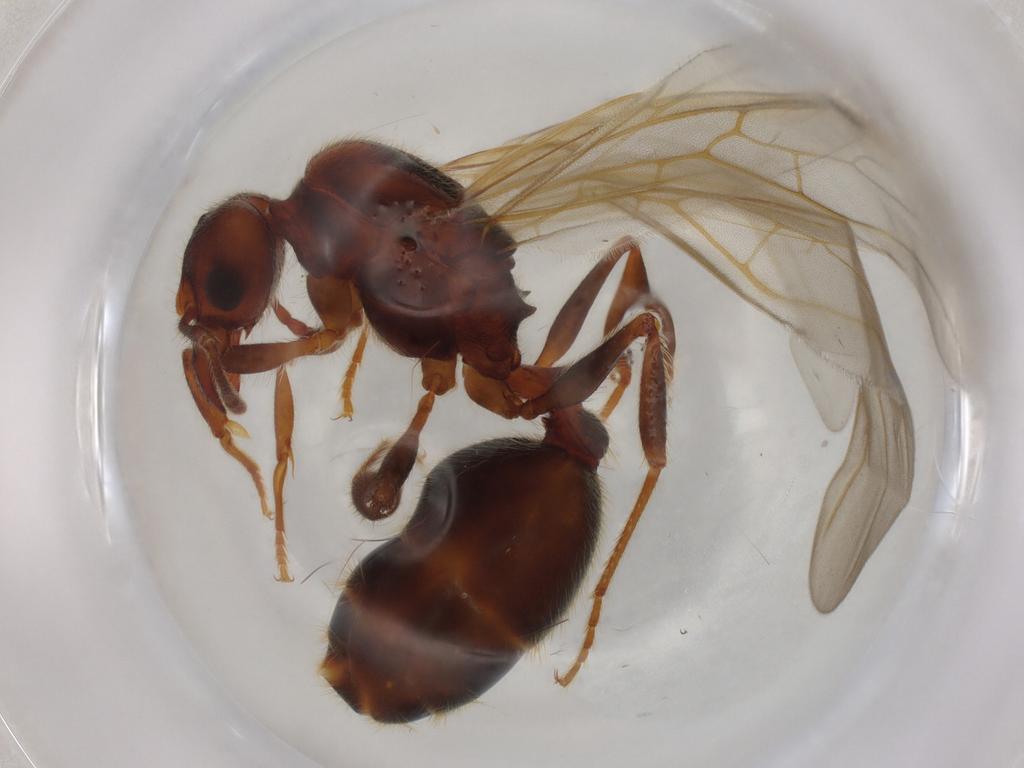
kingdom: Animalia
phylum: Arthropoda
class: Insecta
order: Hymenoptera
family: Formicidae
